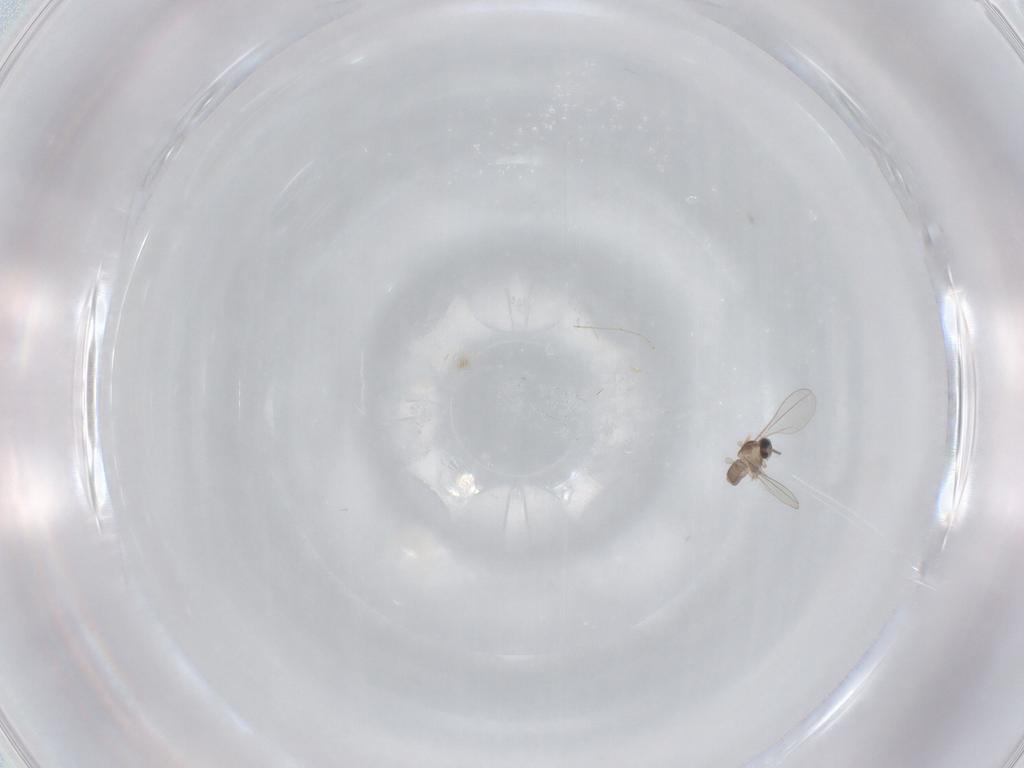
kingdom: Animalia
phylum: Arthropoda
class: Insecta
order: Diptera
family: Cecidomyiidae
